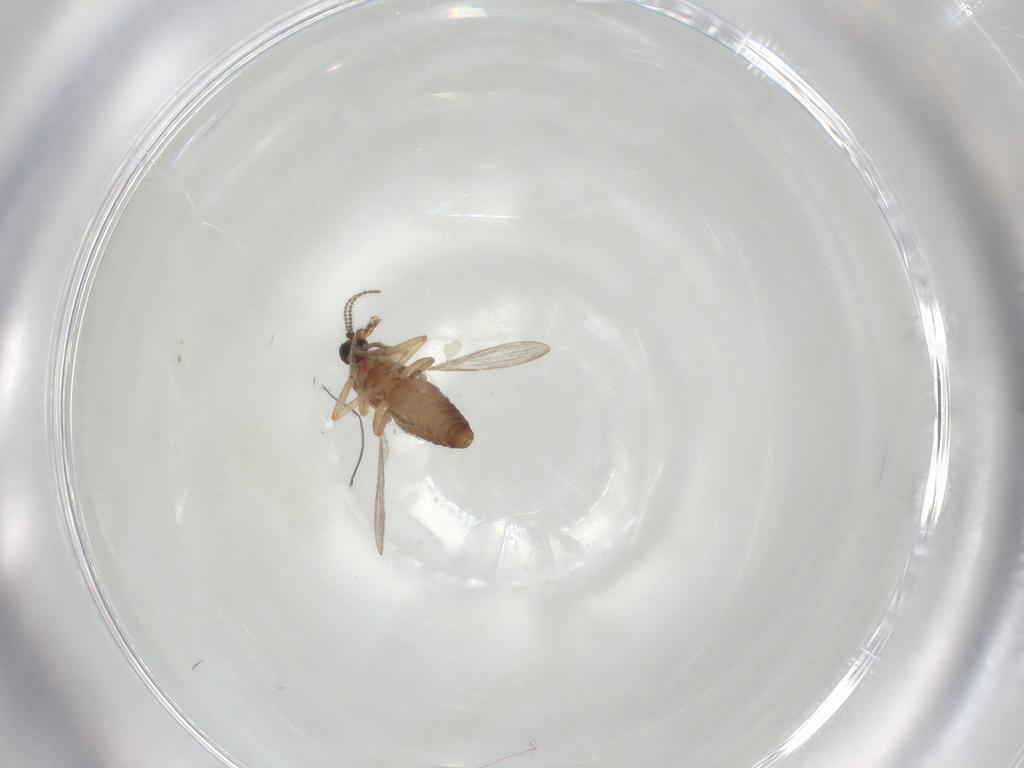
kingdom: Animalia
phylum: Arthropoda
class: Insecta
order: Diptera
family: Ceratopogonidae
